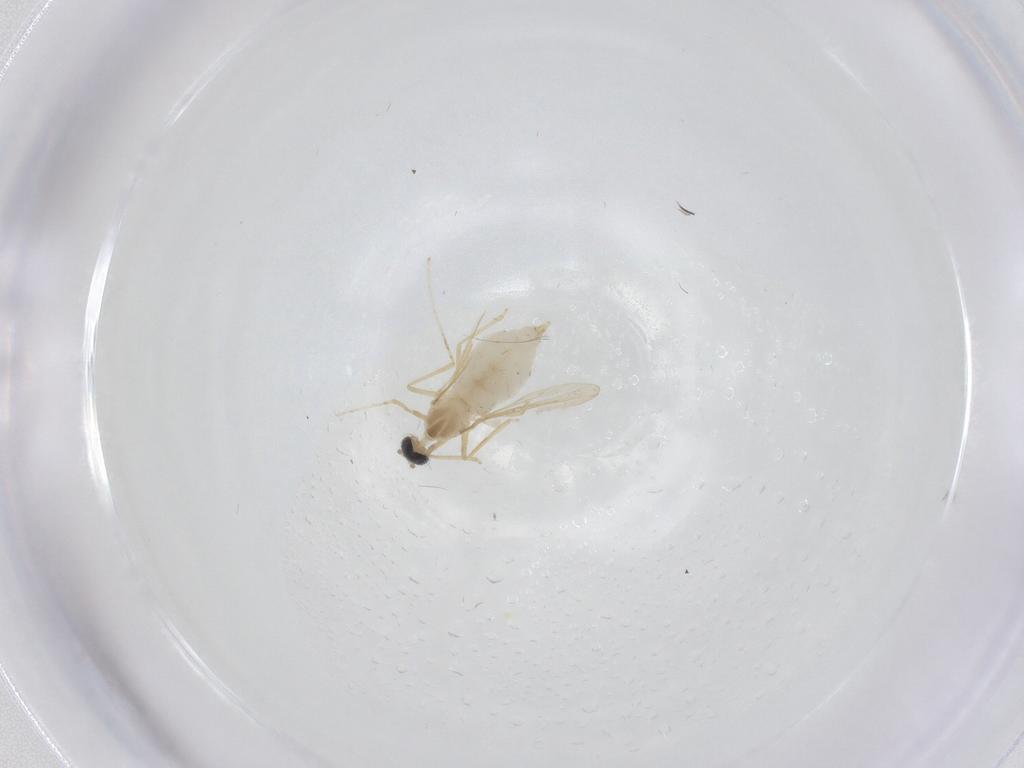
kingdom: Animalia
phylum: Arthropoda
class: Insecta
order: Diptera
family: Cecidomyiidae
